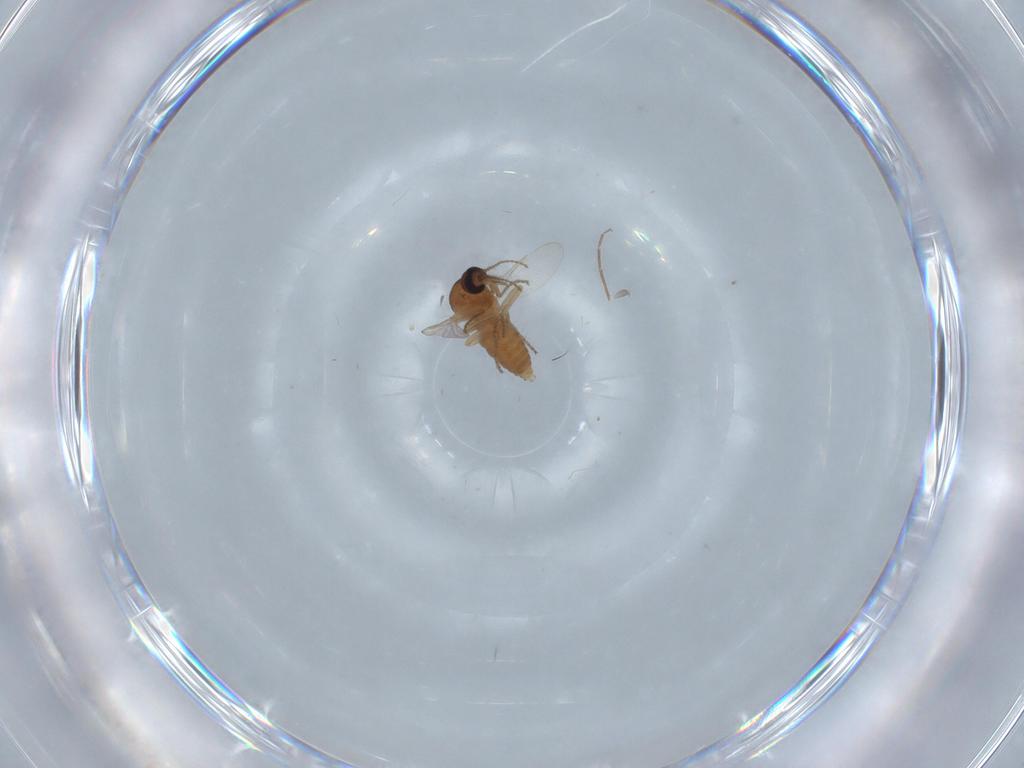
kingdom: Animalia
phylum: Arthropoda
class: Insecta
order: Diptera
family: Ceratopogonidae
